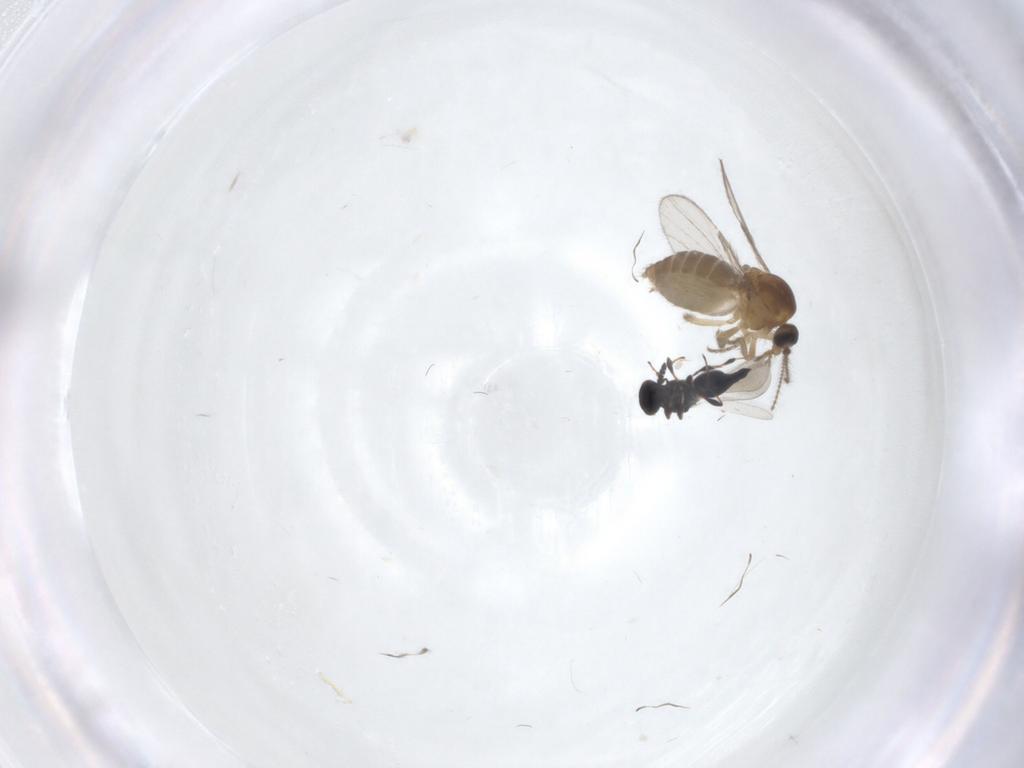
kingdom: Animalia
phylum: Arthropoda
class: Insecta
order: Diptera
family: Ceratopogonidae
